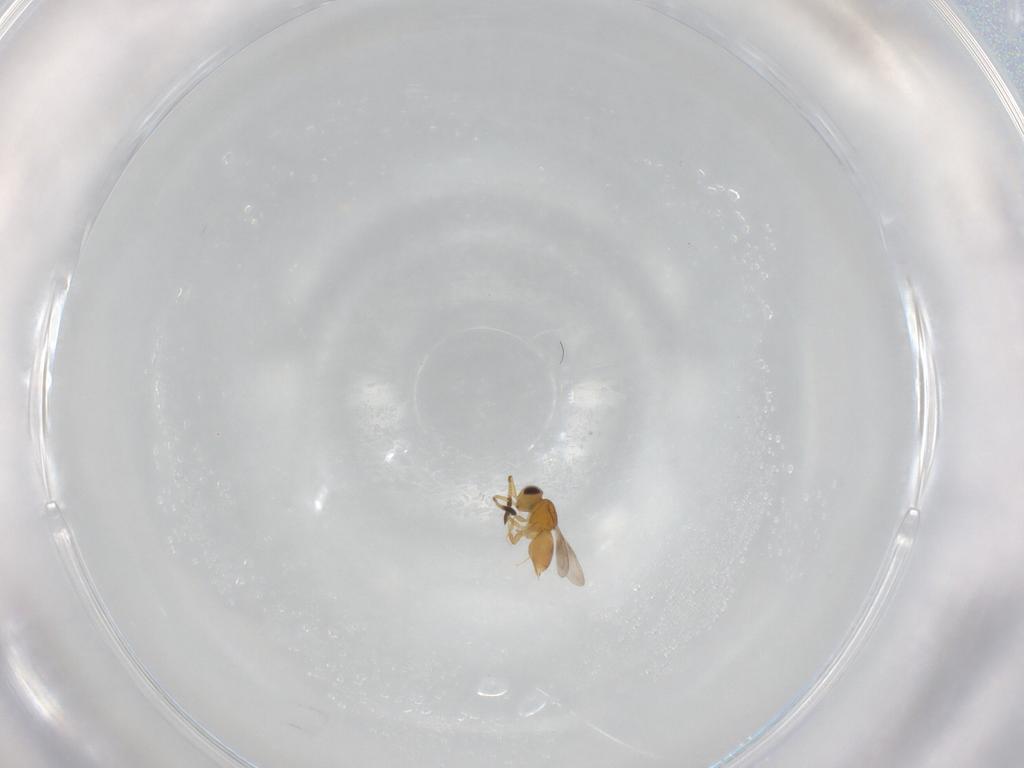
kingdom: Animalia
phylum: Arthropoda
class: Insecta
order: Hymenoptera
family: Ceraphronidae
